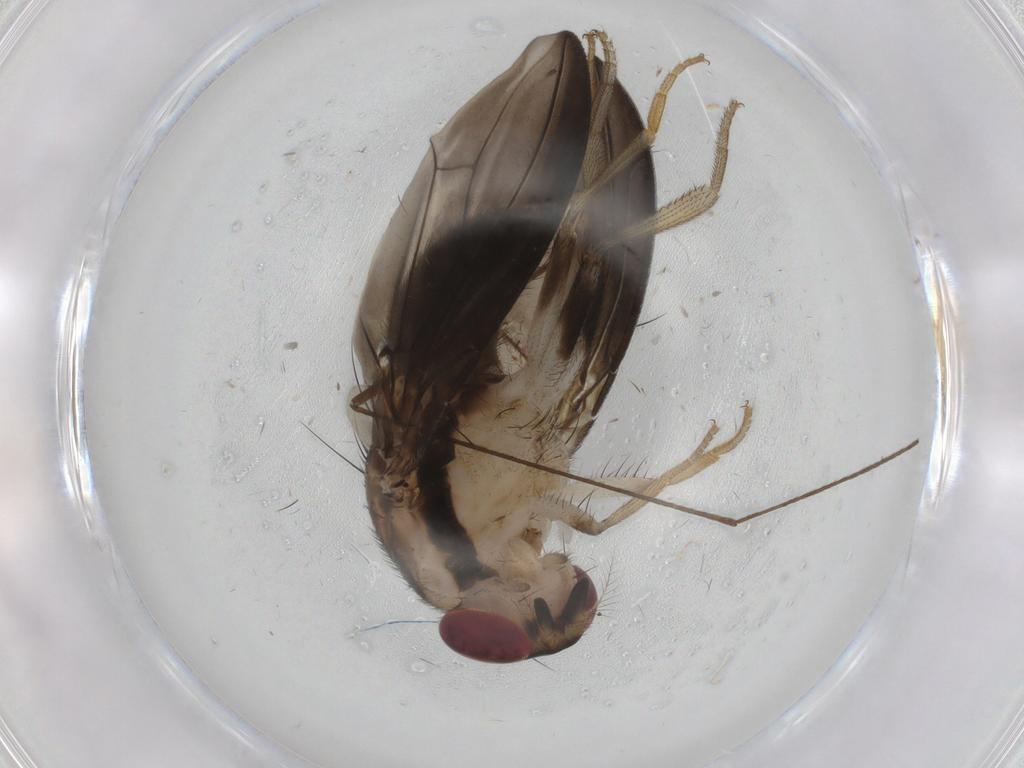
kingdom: Animalia
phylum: Arthropoda
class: Insecta
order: Diptera
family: Drosophilidae
